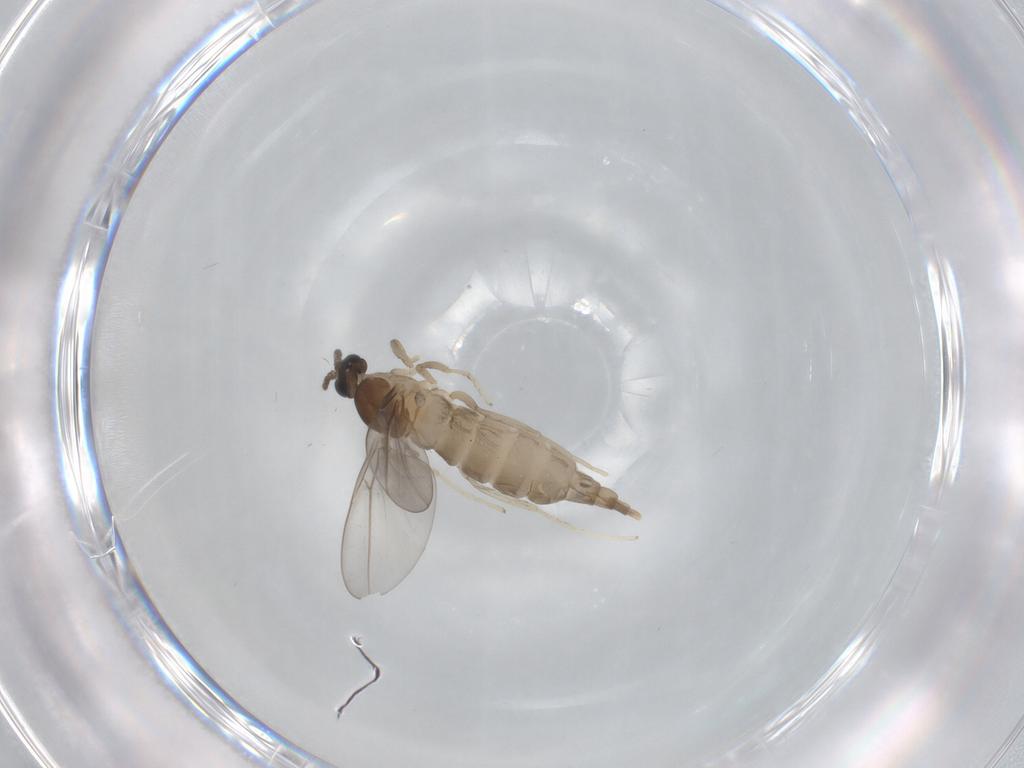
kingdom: Animalia
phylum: Arthropoda
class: Insecta
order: Diptera
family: Cecidomyiidae
